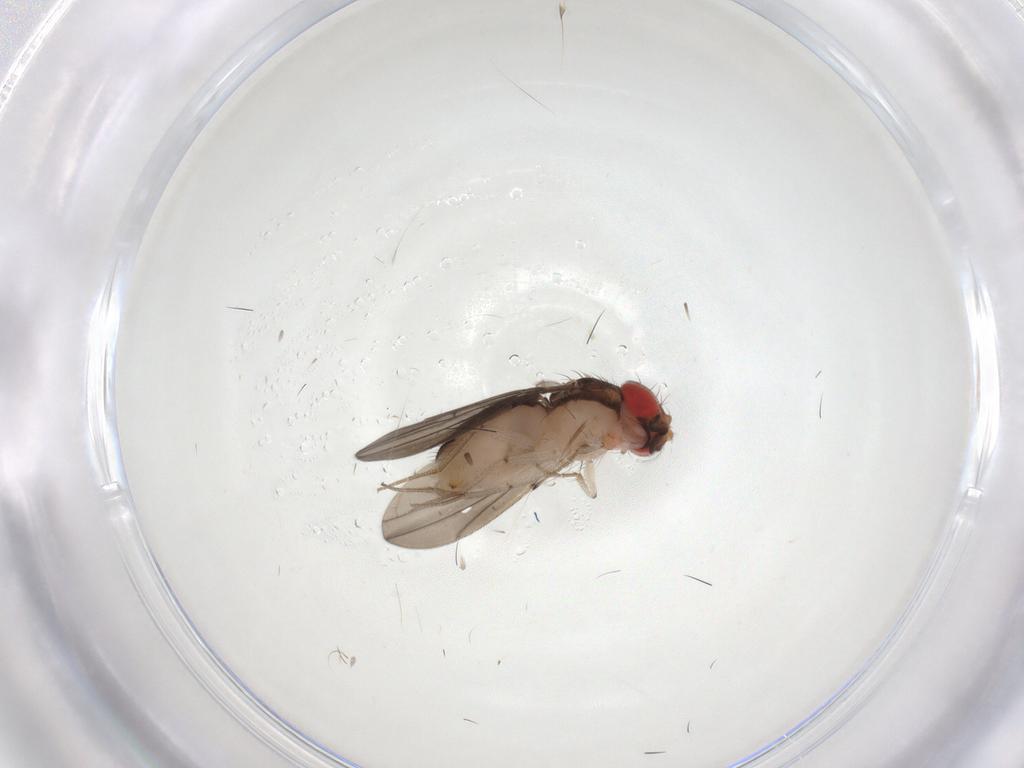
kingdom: Animalia
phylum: Arthropoda
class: Insecta
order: Diptera
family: Drosophilidae
